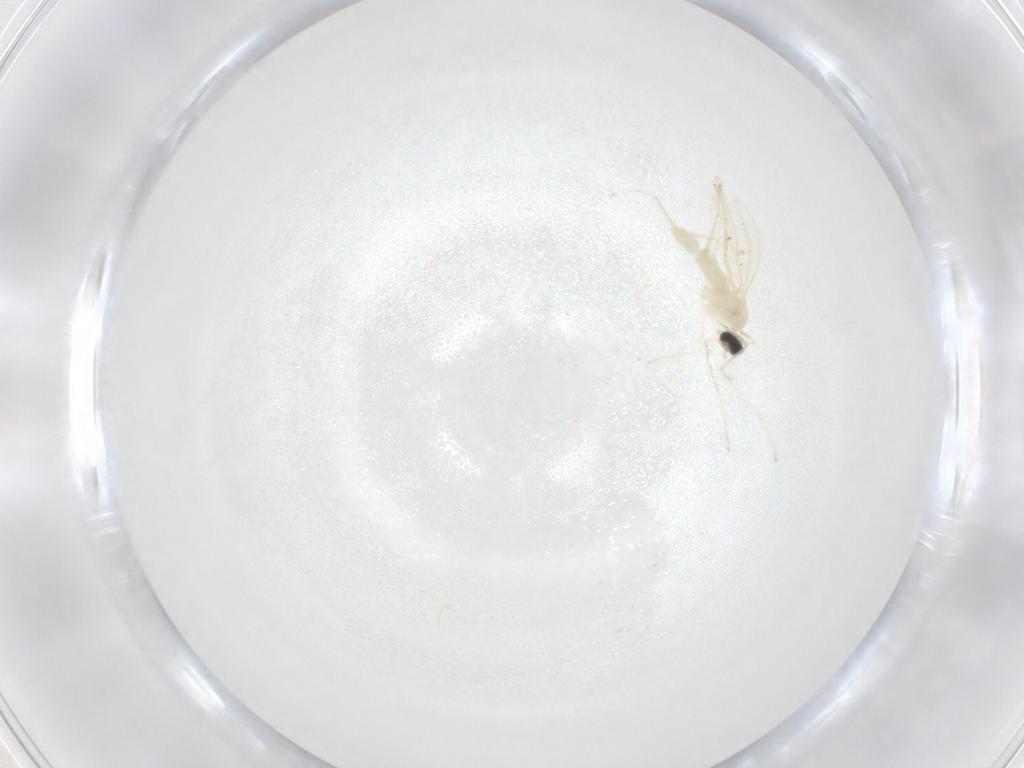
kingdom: Animalia
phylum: Arthropoda
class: Insecta
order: Diptera
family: Cecidomyiidae
